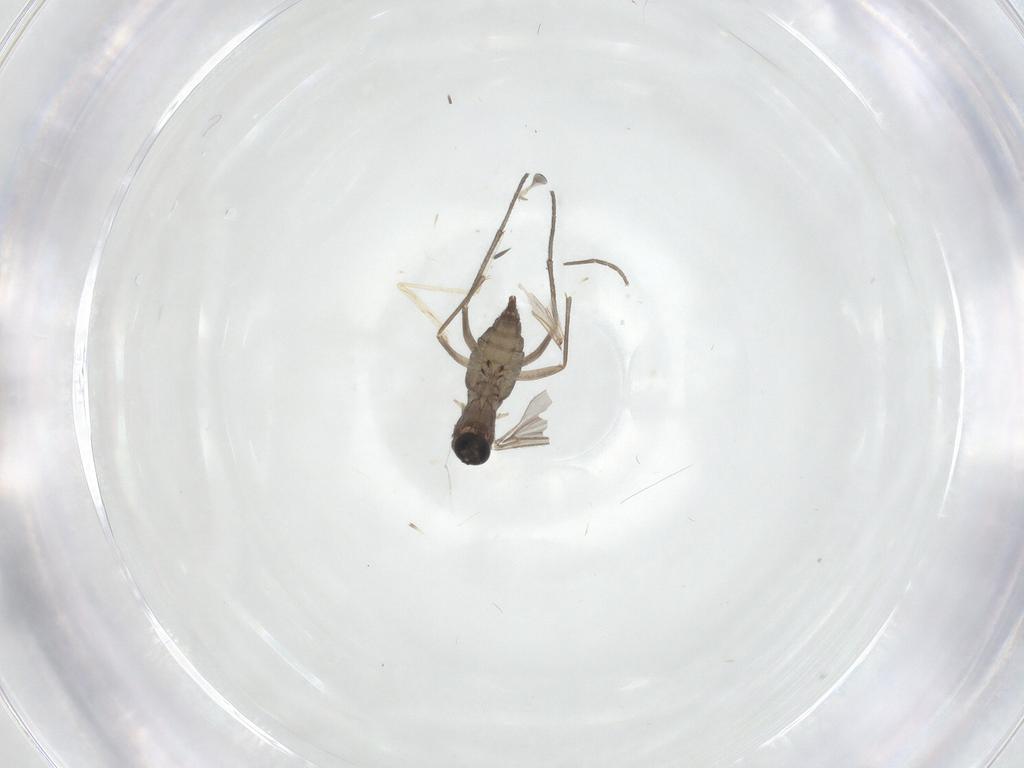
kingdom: Animalia
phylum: Arthropoda
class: Insecta
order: Diptera
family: Sciaridae
